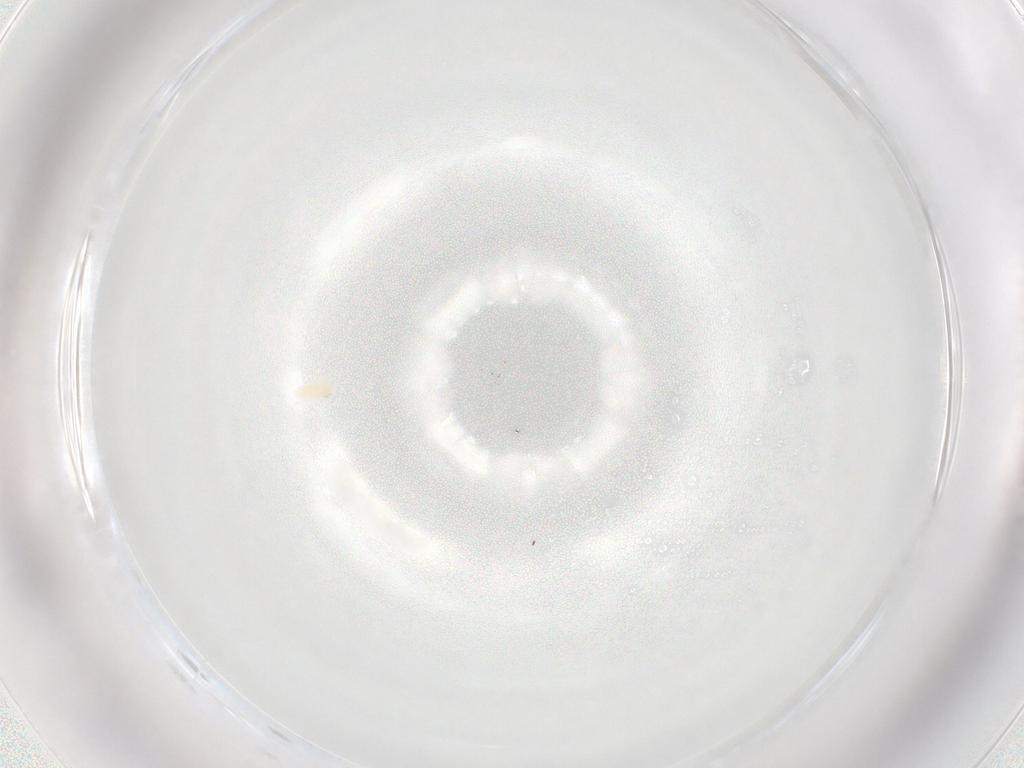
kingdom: Animalia
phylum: Arthropoda
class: Arachnida
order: Trombidiformes
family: Eupodidae
